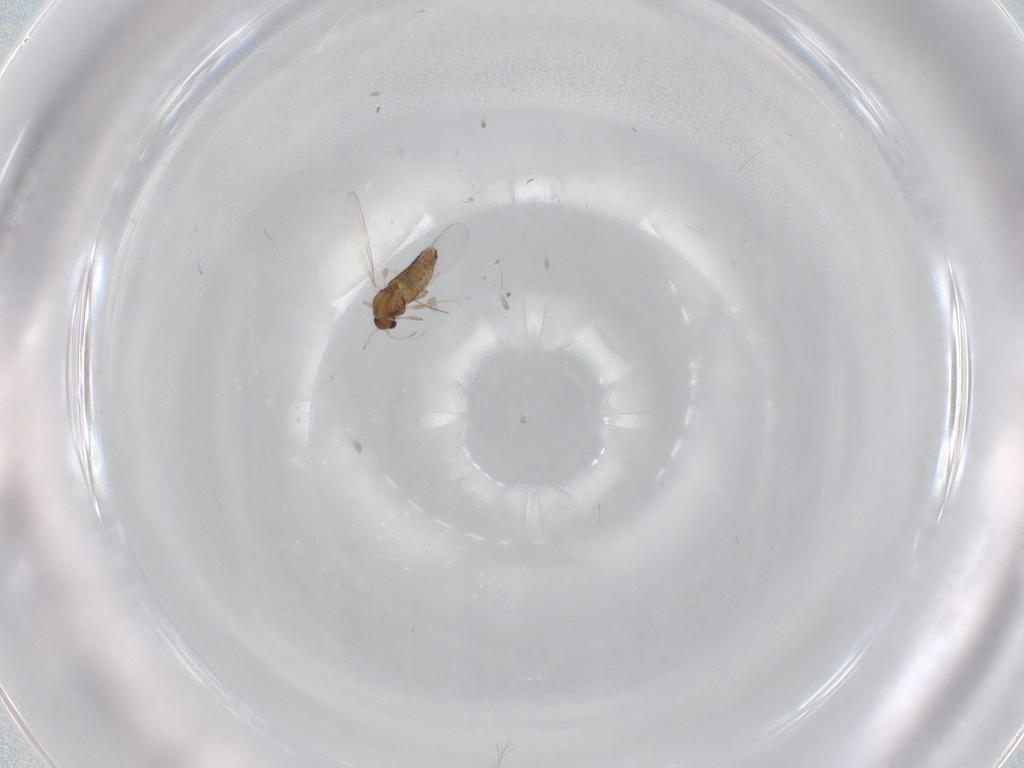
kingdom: Animalia
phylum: Arthropoda
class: Insecta
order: Diptera
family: Chironomidae
